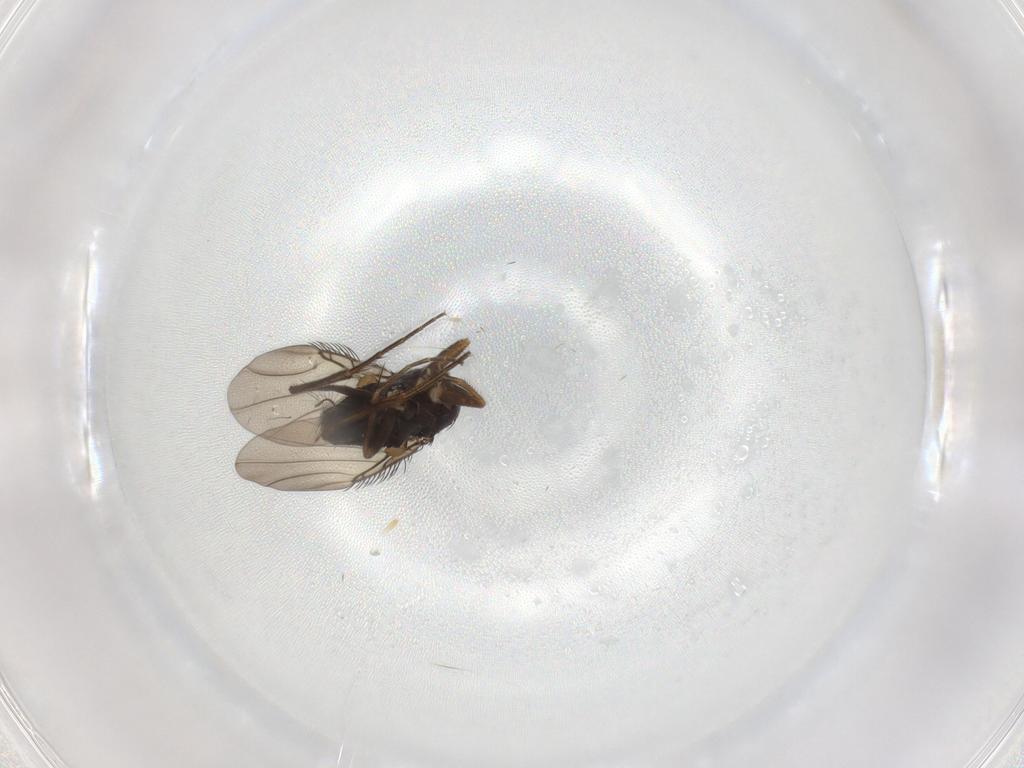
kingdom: Animalia
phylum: Arthropoda
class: Insecta
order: Diptera
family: Phoridae
